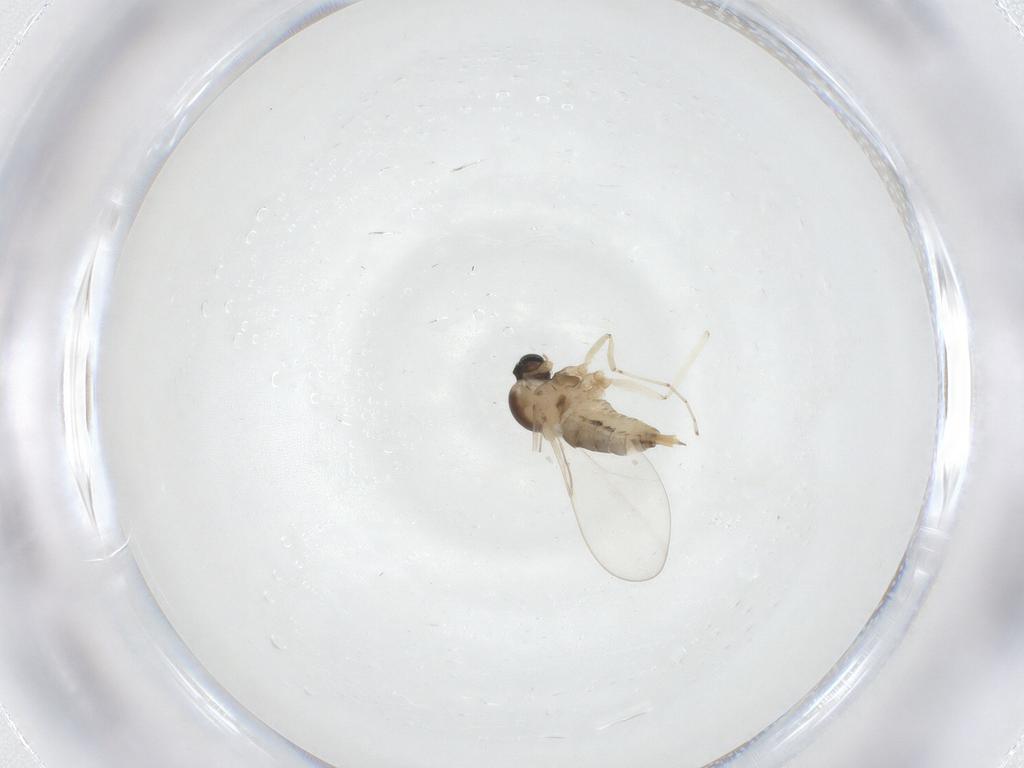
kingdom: Animalia
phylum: Arthropoda
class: Insecta
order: Diptera
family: Cecidomyiidae
